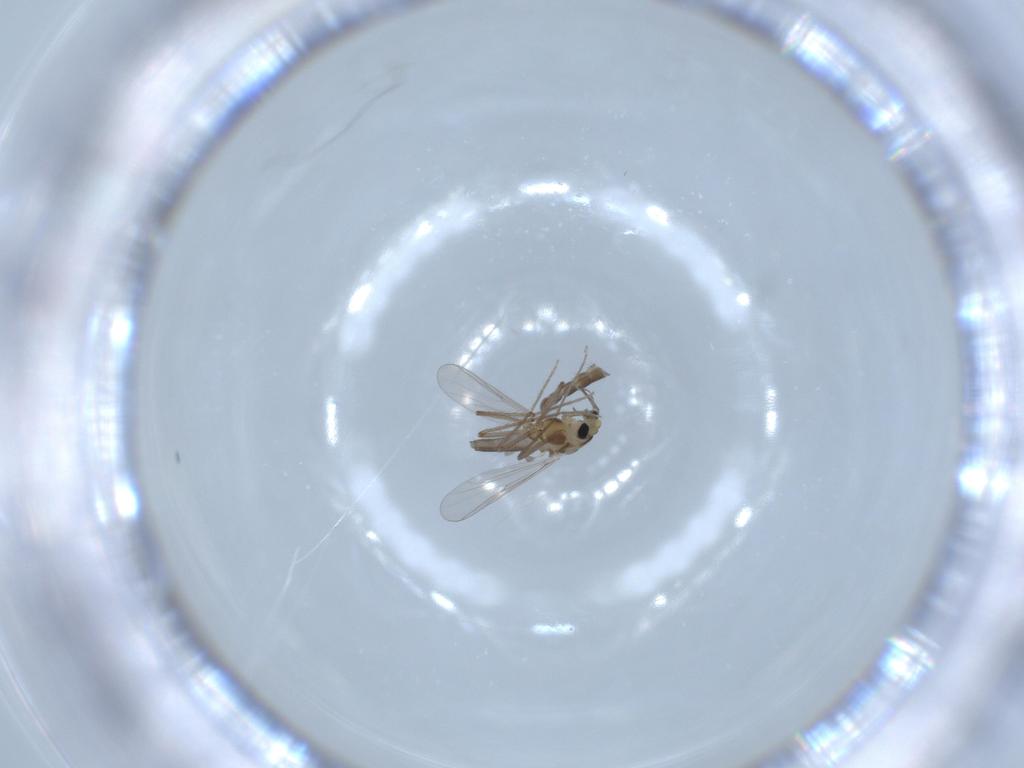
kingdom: Animalia
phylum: Arthropoda
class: Insecta
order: Diptera
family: Chironomidae
